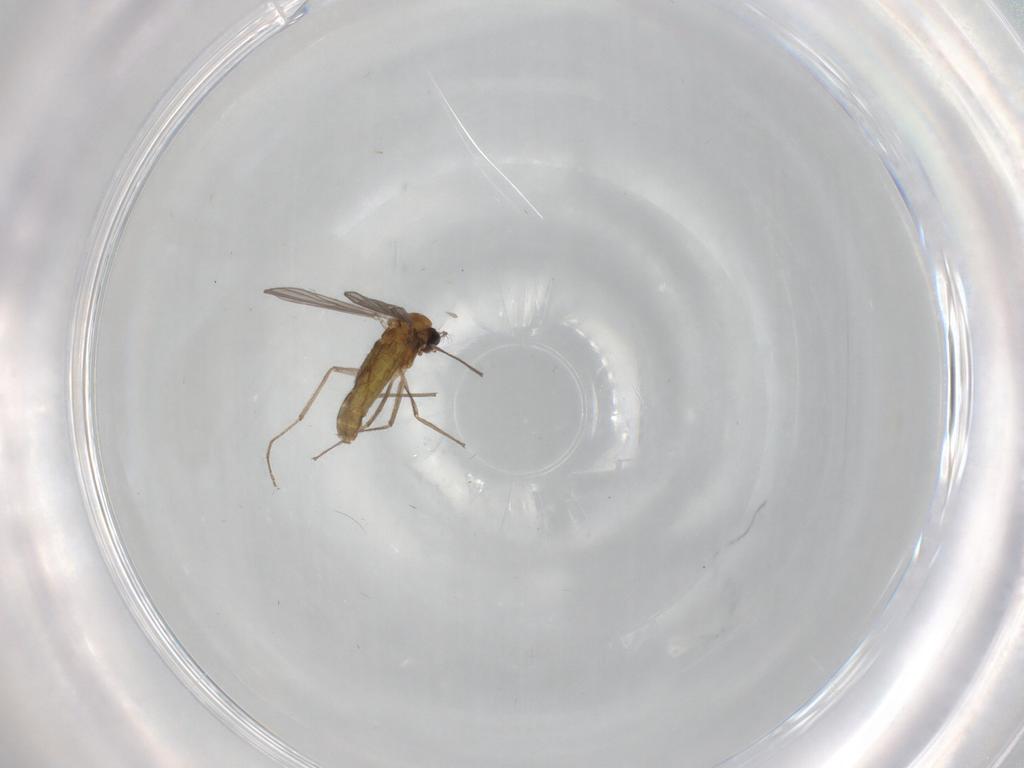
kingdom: Animalia
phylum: Arthropoda
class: Insecta
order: Diptera
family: Chironomidae
